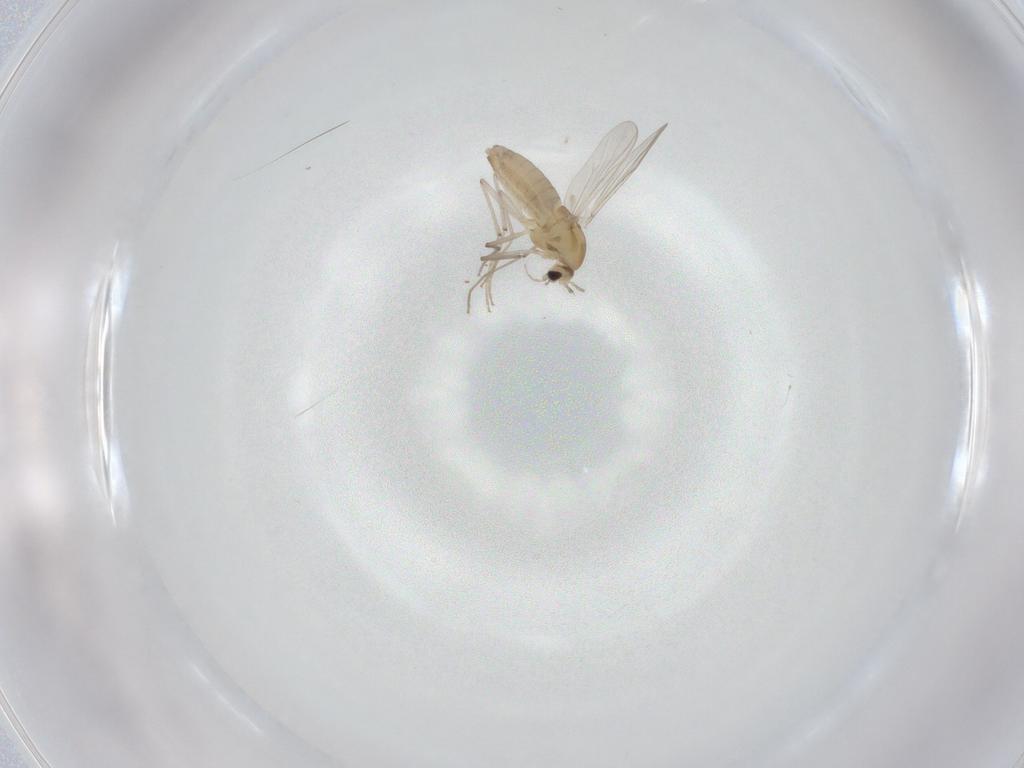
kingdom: Animalia
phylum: Arthropoda
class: Insecta
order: Diptera
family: Chironomidae
